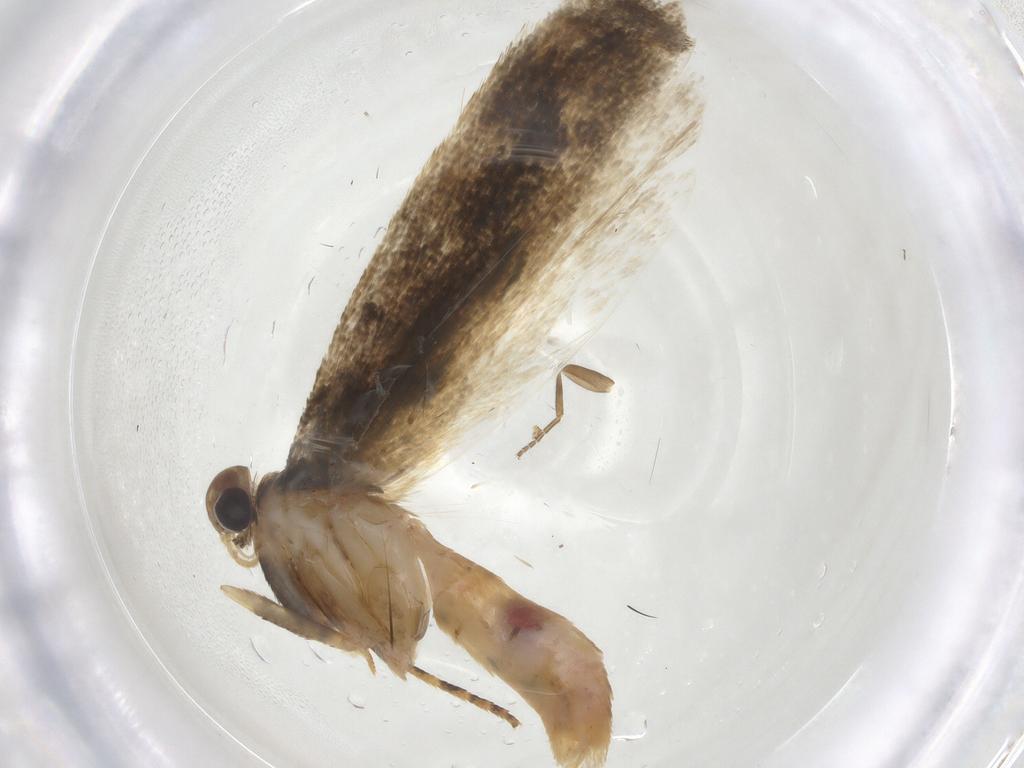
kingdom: Animalia
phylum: Arthropoda
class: Insecta
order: Lepidoptera
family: Gelechiidae
